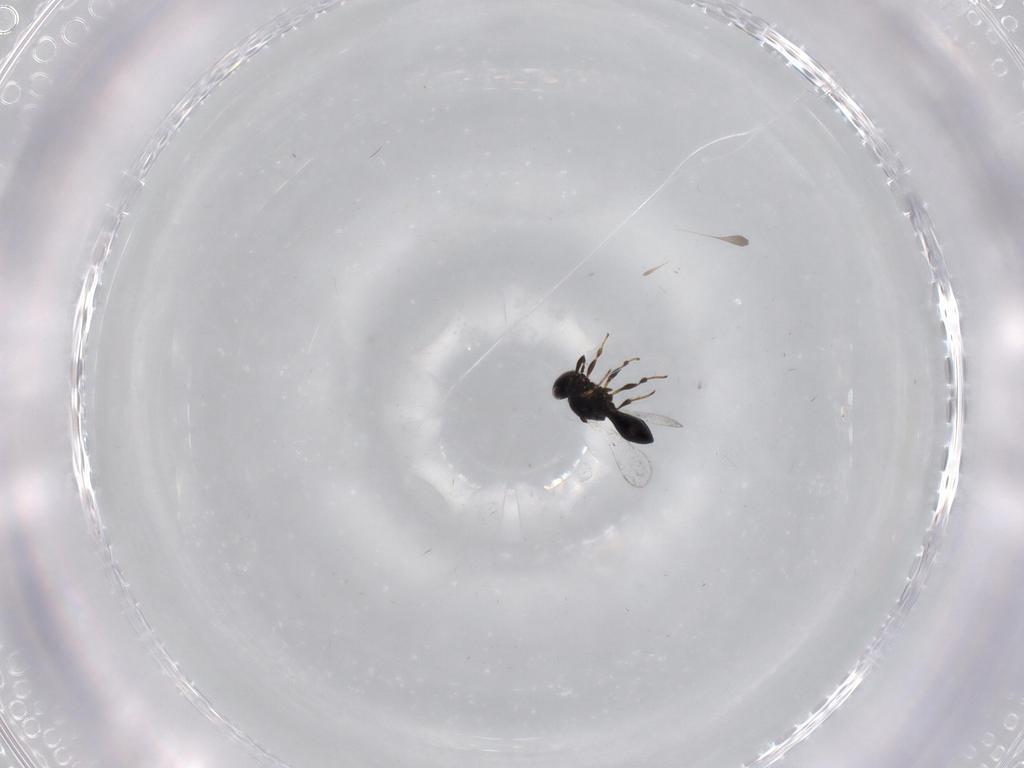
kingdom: Animalia
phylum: Arthropoda
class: Insecta
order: Hymenoptera
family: Platygastridae
